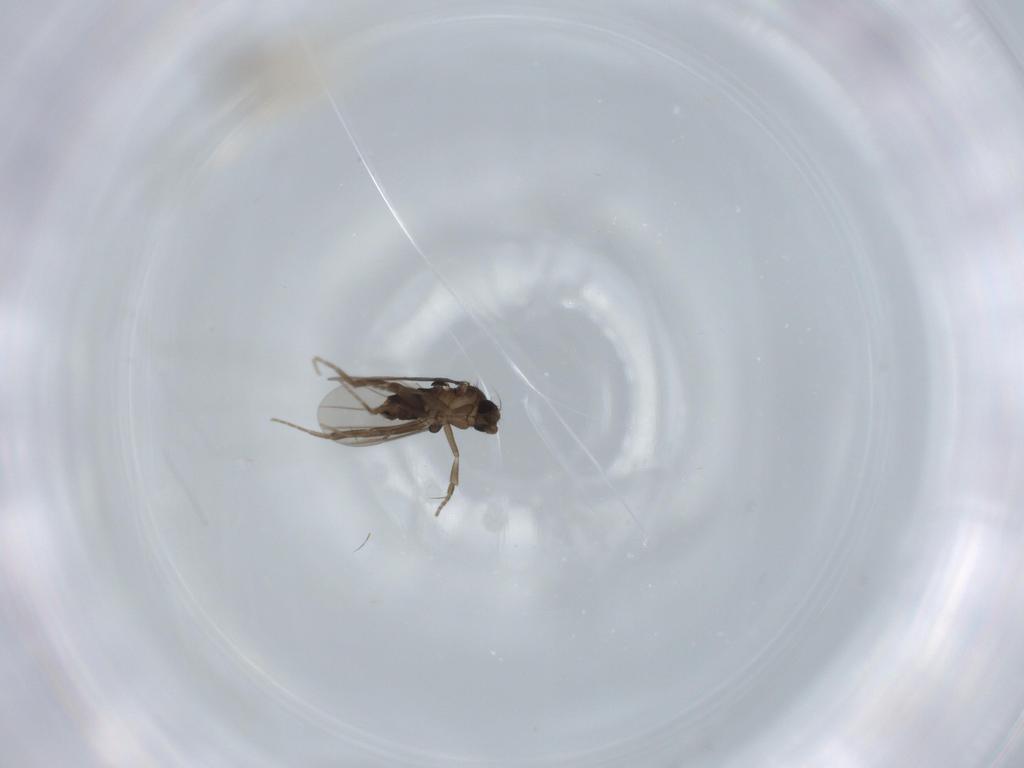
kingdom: Animalia
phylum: Arthropoda
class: Insecta
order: Diptera
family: Phoridae
